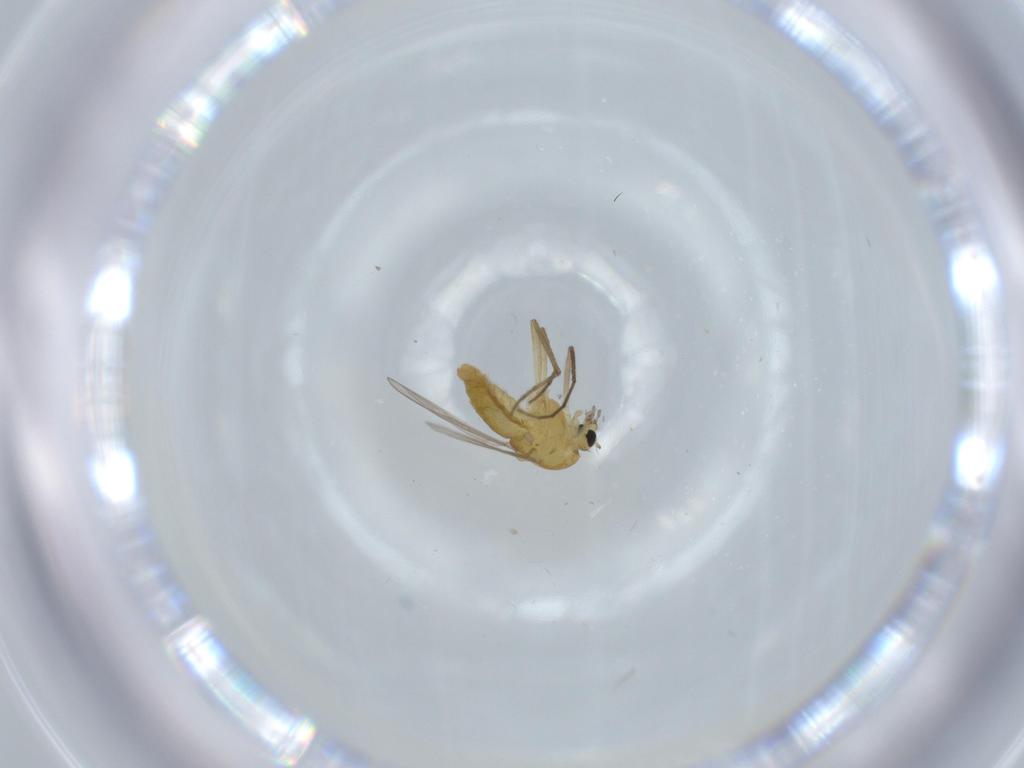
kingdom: Animalia
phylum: Arthropoda
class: Insecta
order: Diptera
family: Chironomidae
